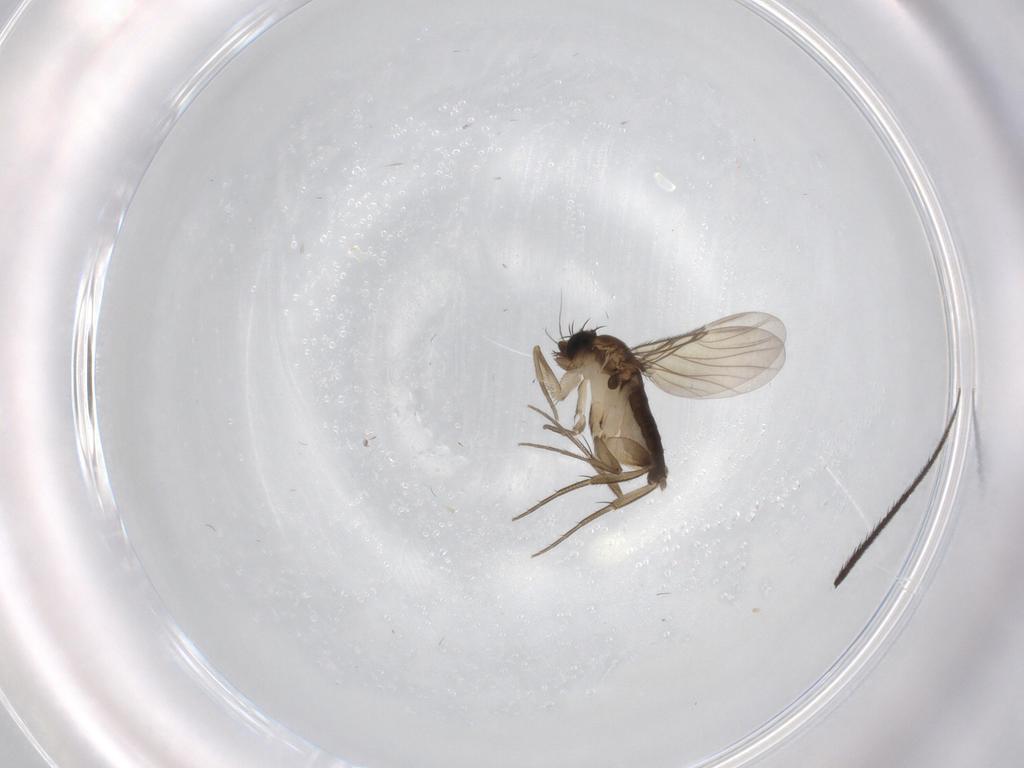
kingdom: Animalia
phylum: Arthropoda
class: Insecta
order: Diptera
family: Phoridae
